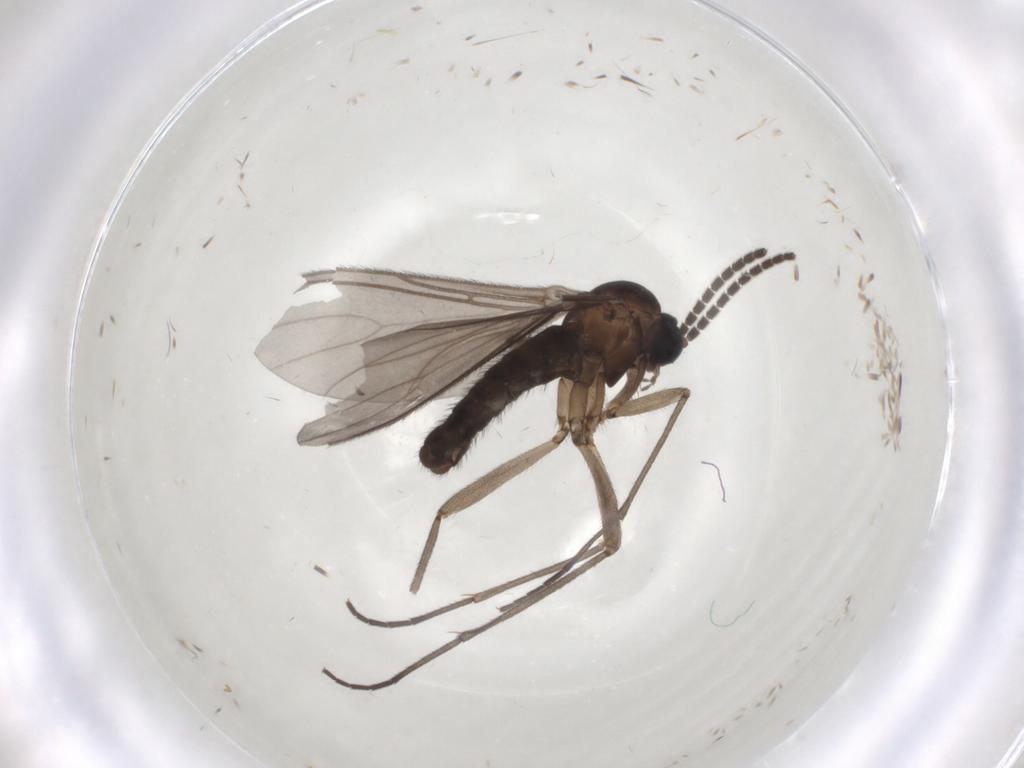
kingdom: Animalia
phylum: Arthropoda
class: Insecta
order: Diptera
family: Sciaridae
